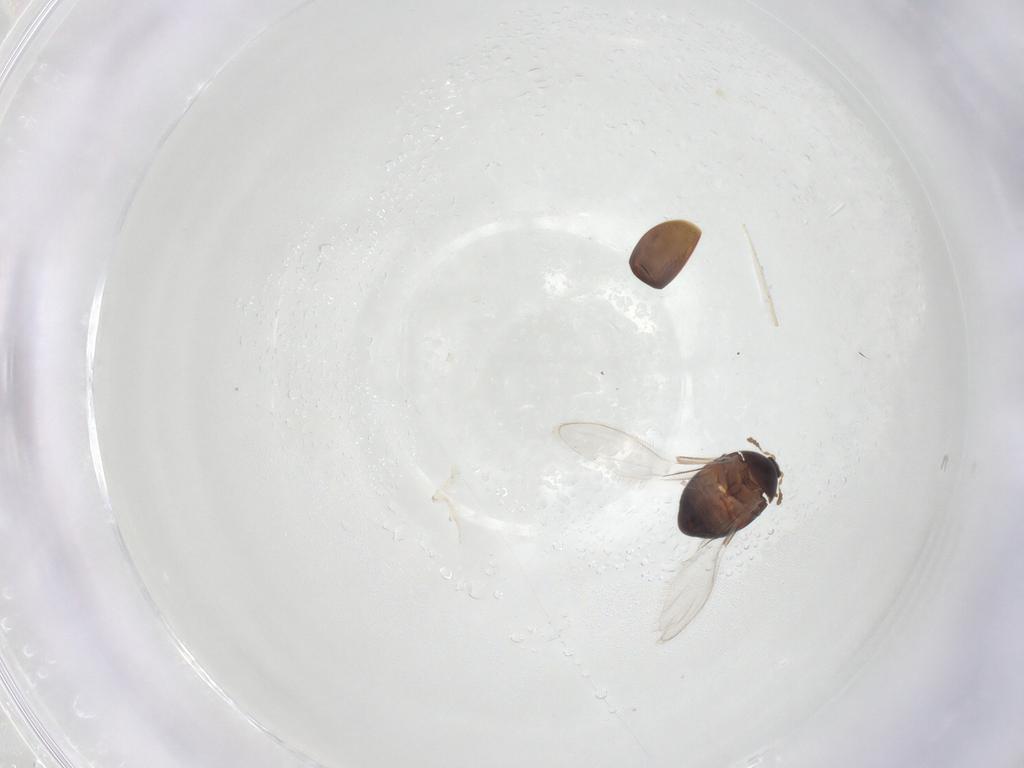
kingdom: Animalia
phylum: Arthropoda
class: Insecta
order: Coleoptera
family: Corylophidae
